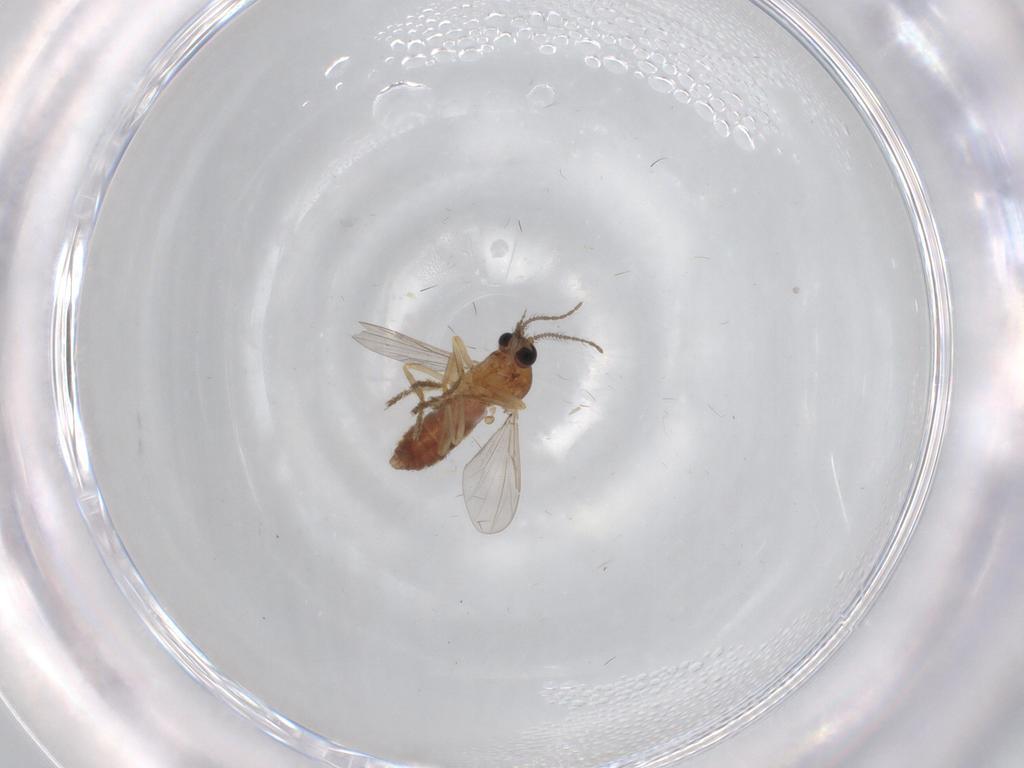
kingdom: Animalia
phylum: Arthropoda
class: Insecta
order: Diptera
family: Ceratopogonidae
